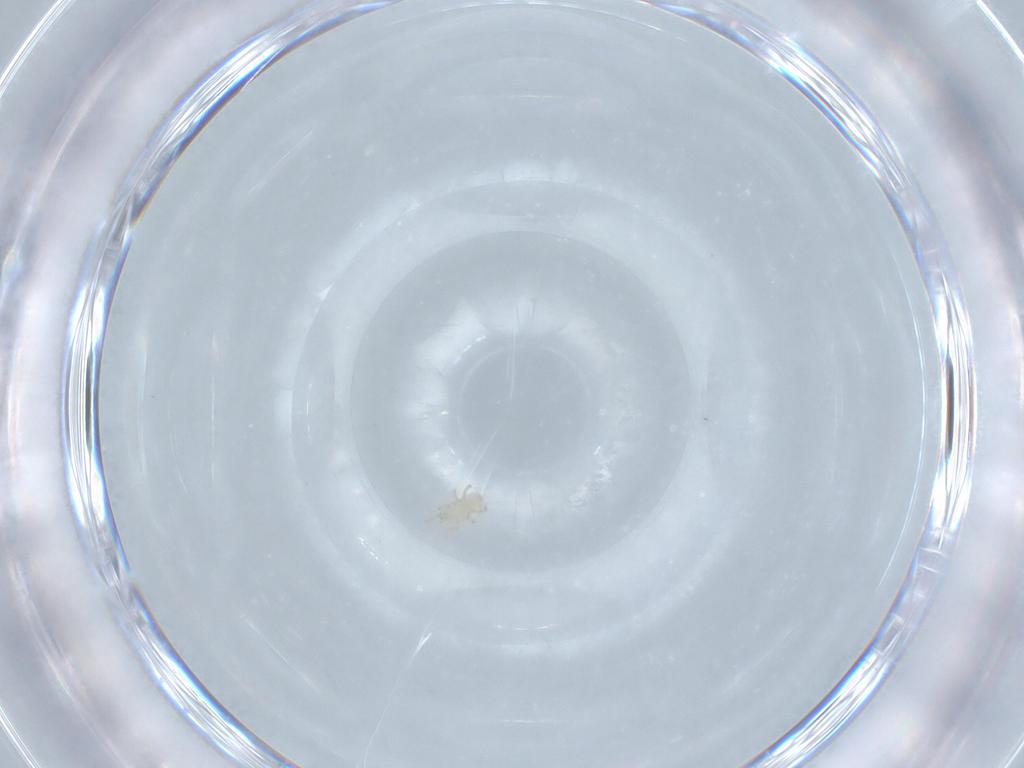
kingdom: Animalia
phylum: Arthropoda
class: Arachnida
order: Mesostigmata
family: Ascidae
